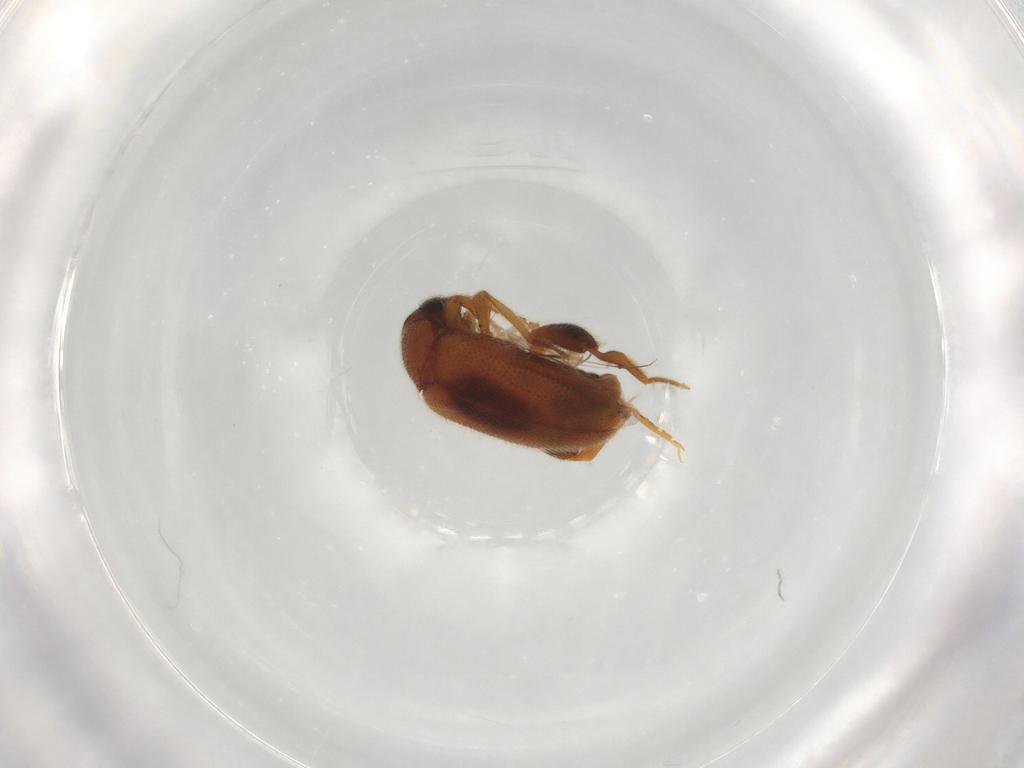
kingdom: Animalia
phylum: Arthropoda
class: Insecta
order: Coleoptera
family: Aderidae
